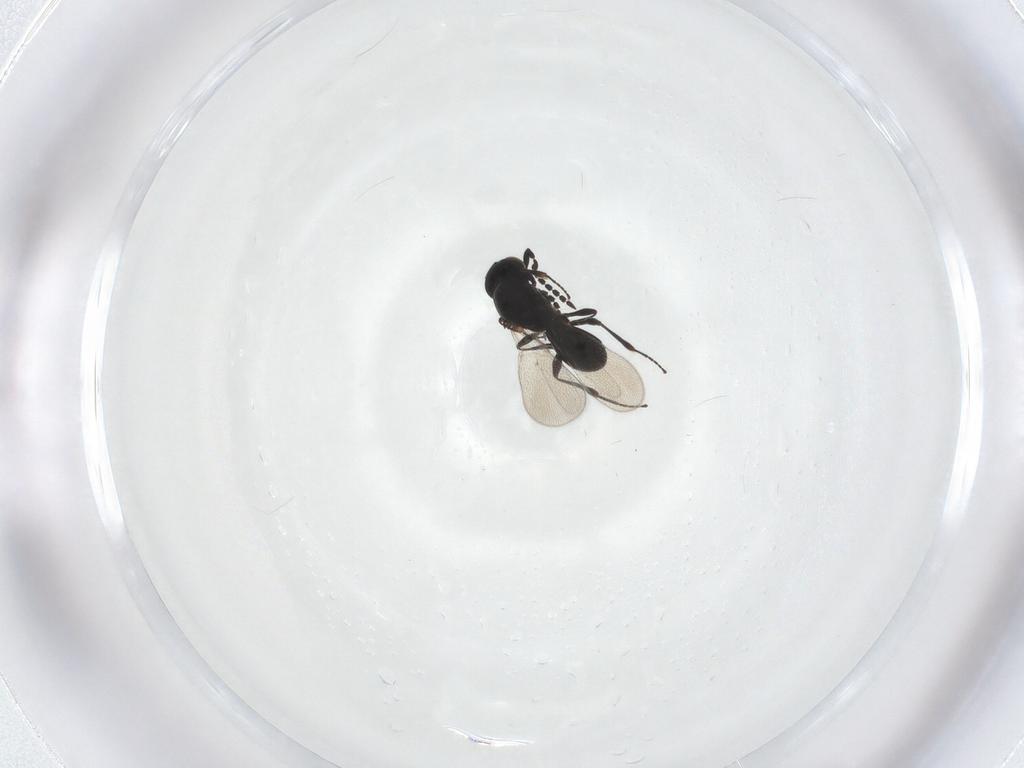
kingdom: Animalia
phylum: Arthropoda
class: Insecta
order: Hymenoptera
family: Platygastridae
